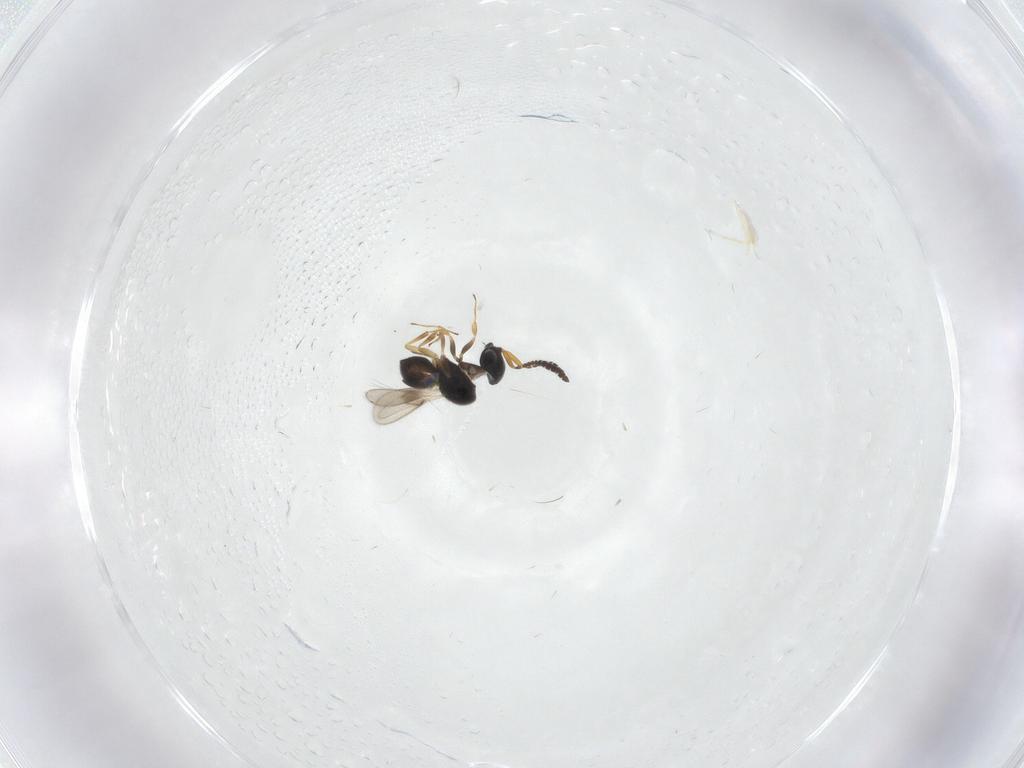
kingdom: Animalia
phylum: Arthropoda
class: Insecta
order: Hymenoptera
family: Scelionidae
